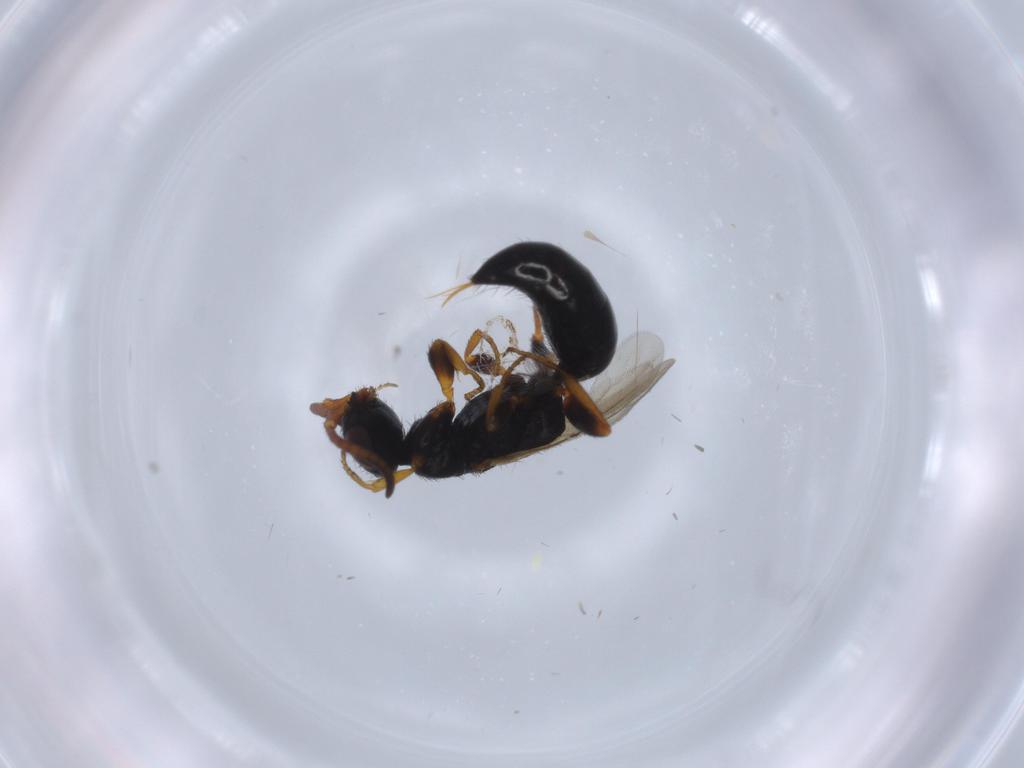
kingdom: Animalia
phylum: Arthropoda
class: Insecta
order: Hymenoptera
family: Bethylidae
